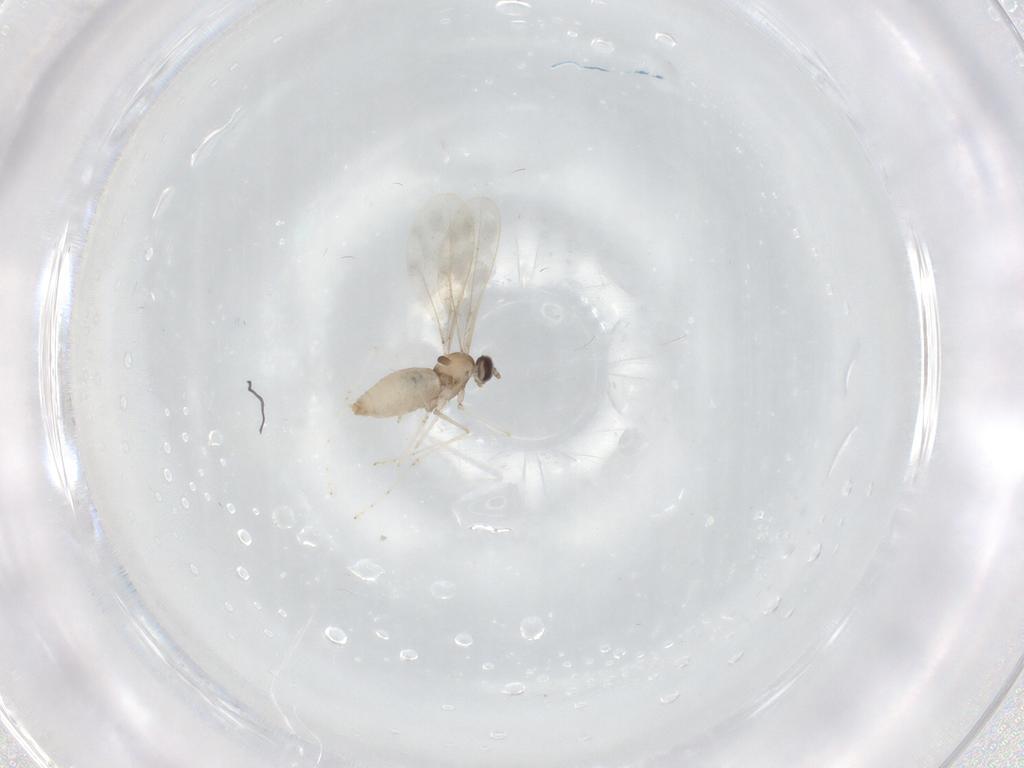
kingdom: Animalia
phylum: Arthropoda
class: Insecta
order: Diptera
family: Cecidomyiidae
